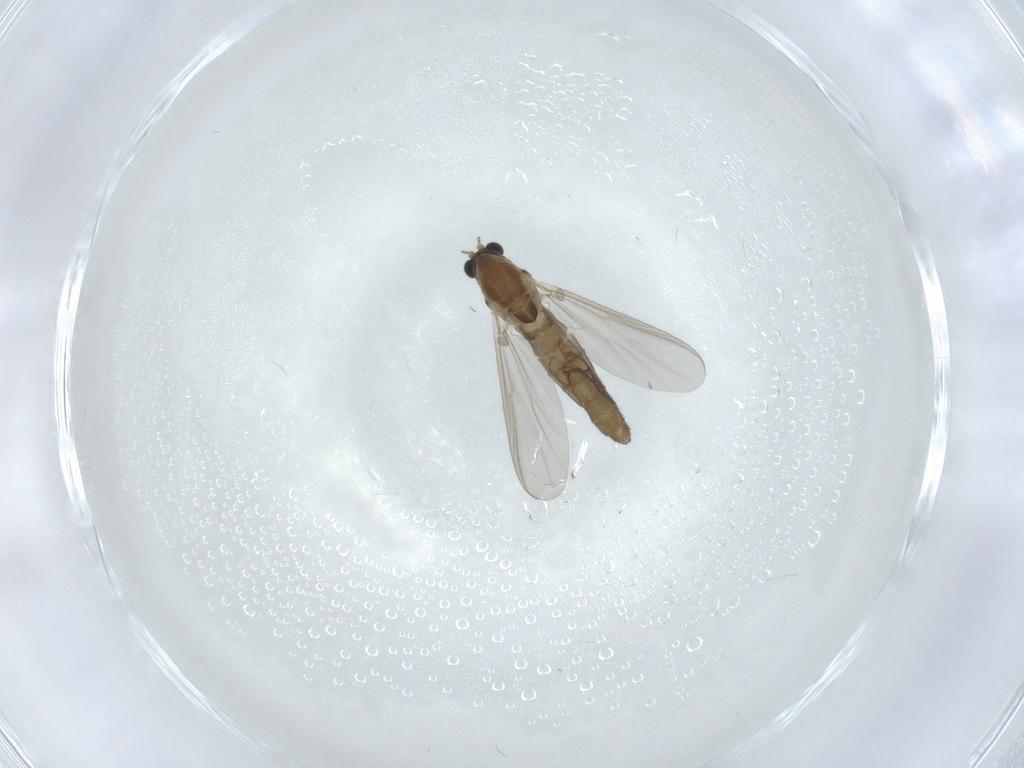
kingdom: Animalia
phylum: Arthropoda
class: Insecta
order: Diptera
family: Chironomidae
